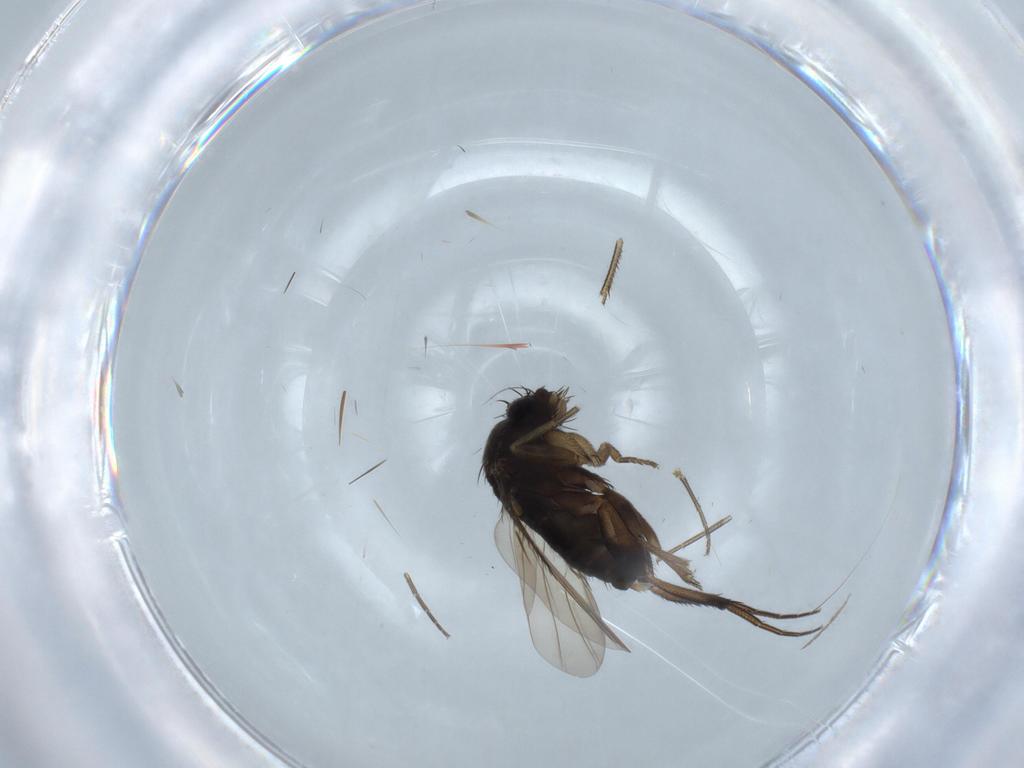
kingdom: Animalia
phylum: Arthropoda
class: Insecta
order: Diptera
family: Phoridae
